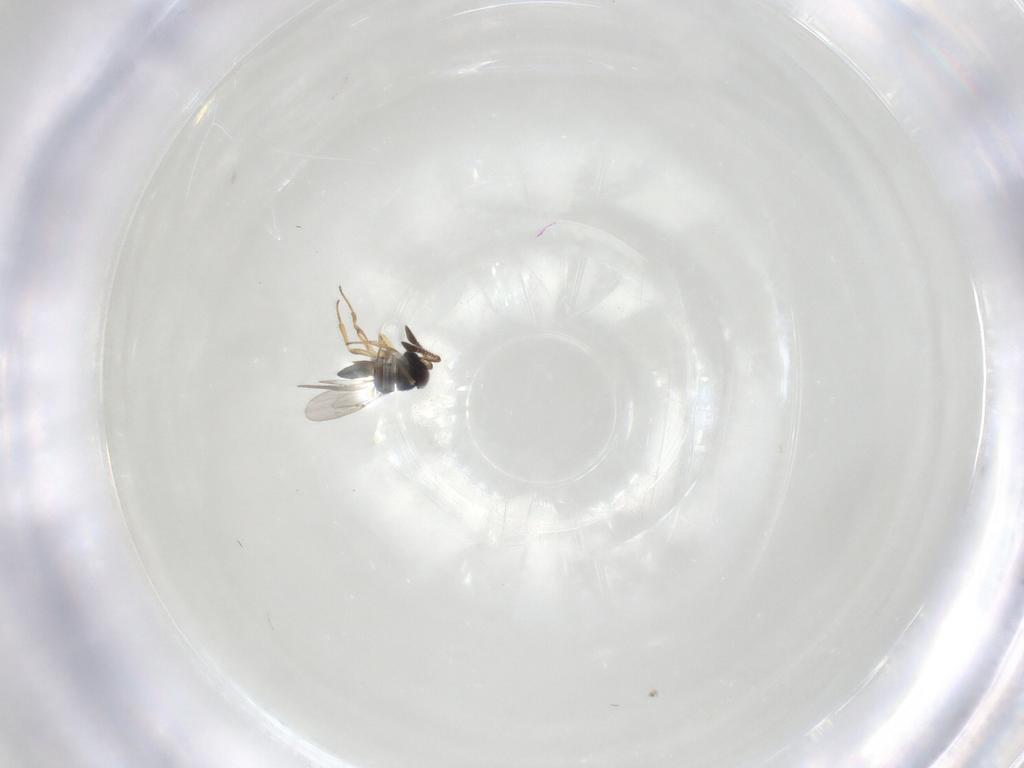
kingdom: Animalia
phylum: Arthropoda
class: Insecta
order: Hymenoptera
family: Scelionidae
